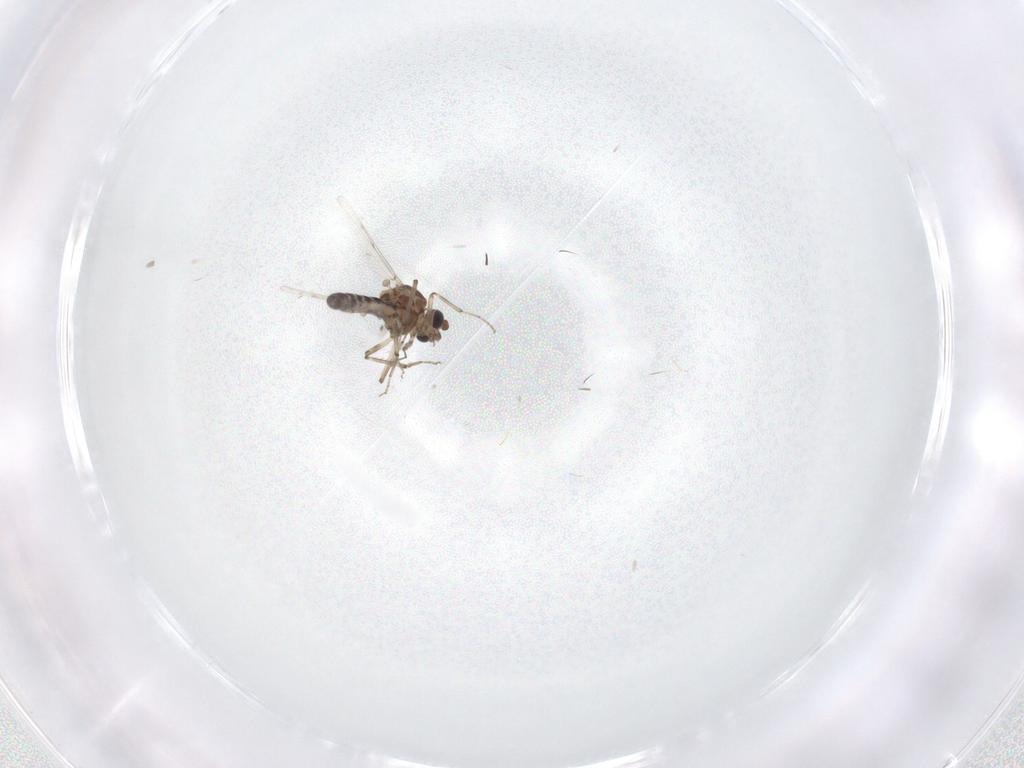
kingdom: Animalia
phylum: Arthropoda
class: Insecta
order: Diptera
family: Ceratopogonidae
